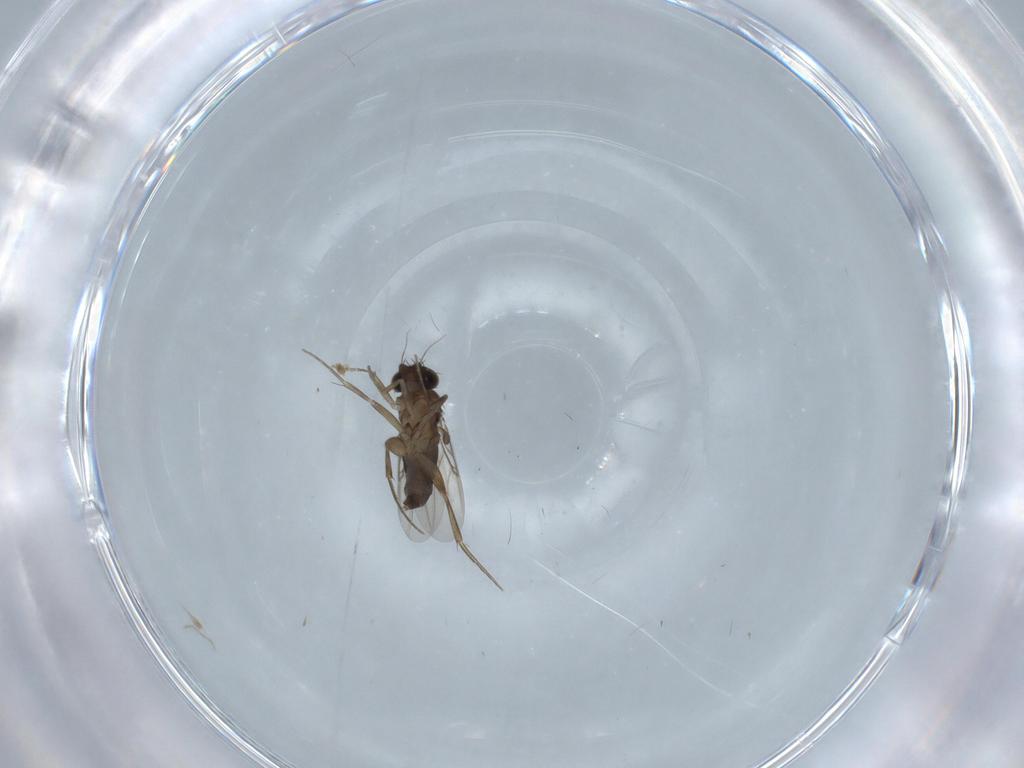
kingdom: Animalia
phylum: Arthropoda
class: Insecta
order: Diptera
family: Phoridae
